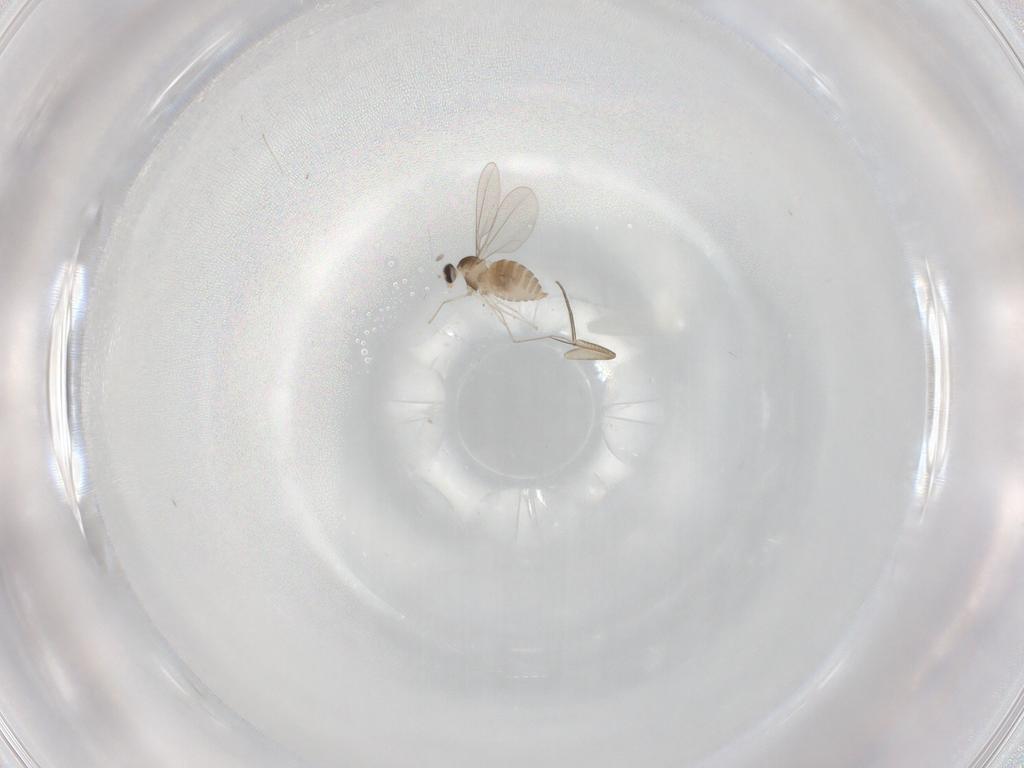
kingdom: Animalia
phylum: Arthropoda
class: Insecta
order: Diptera
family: Cecidomyiidae
